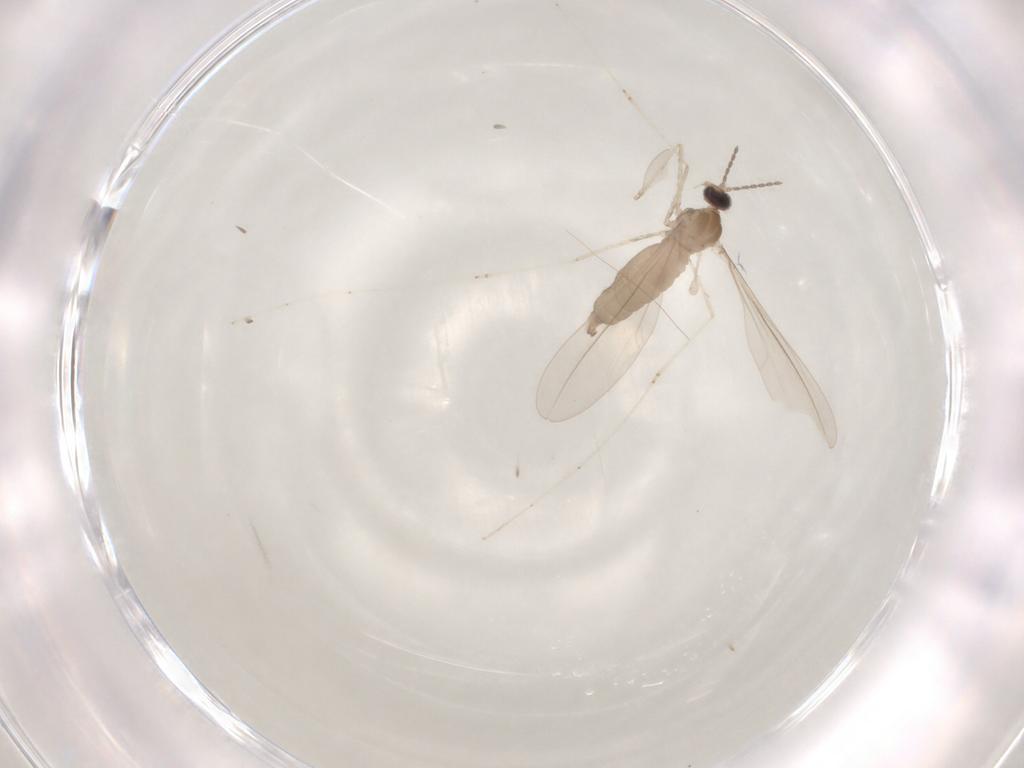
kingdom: Animalia
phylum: Arthropoda
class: Insecta
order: Diptera
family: Cecidomyiidae
